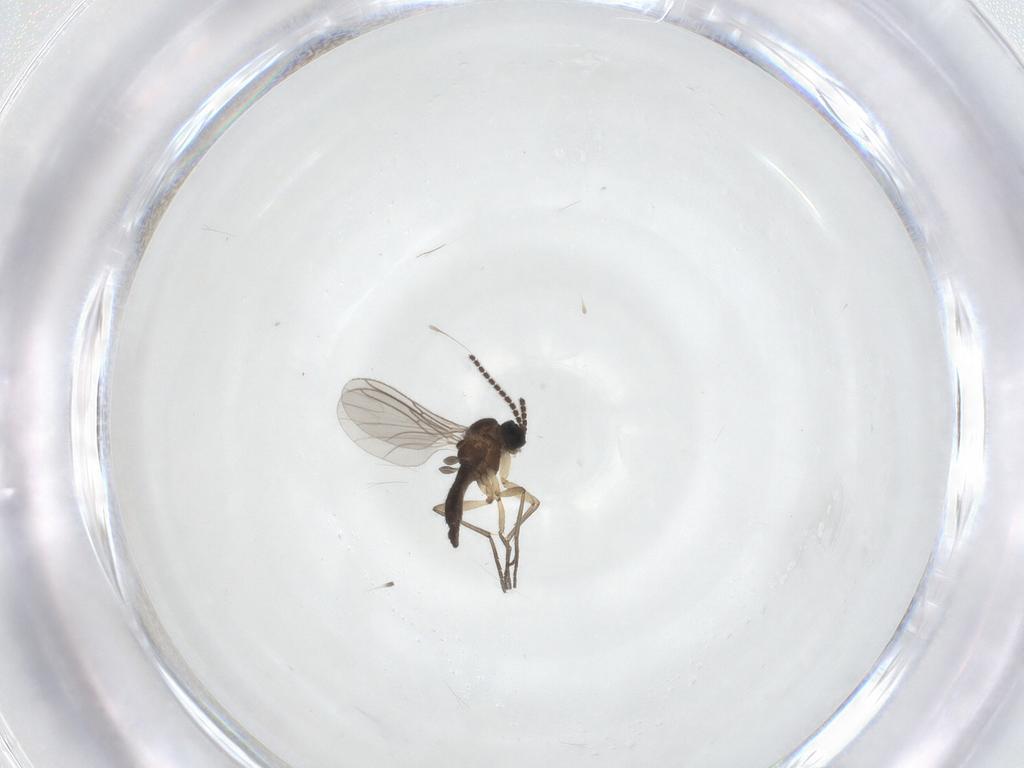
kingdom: Animalia
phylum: Arthropoda
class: Insecta
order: Diptera
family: Sciaridae
